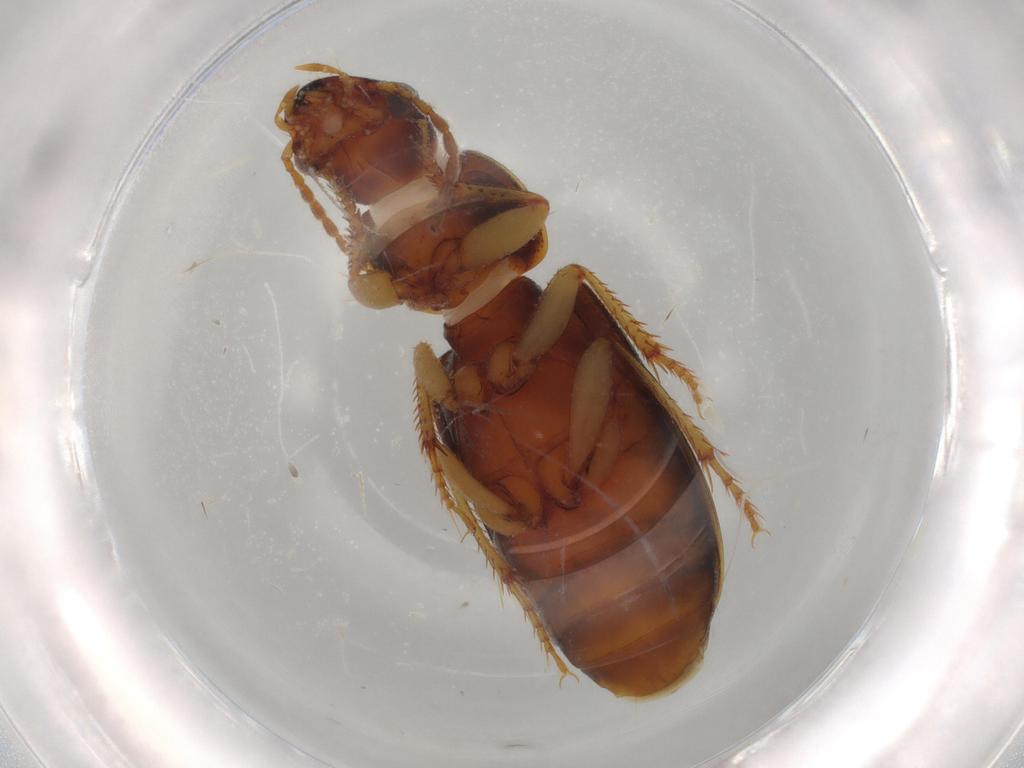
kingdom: Animalia
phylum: Arthropoda
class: Insecta
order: Coleoptera
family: Carabidae
